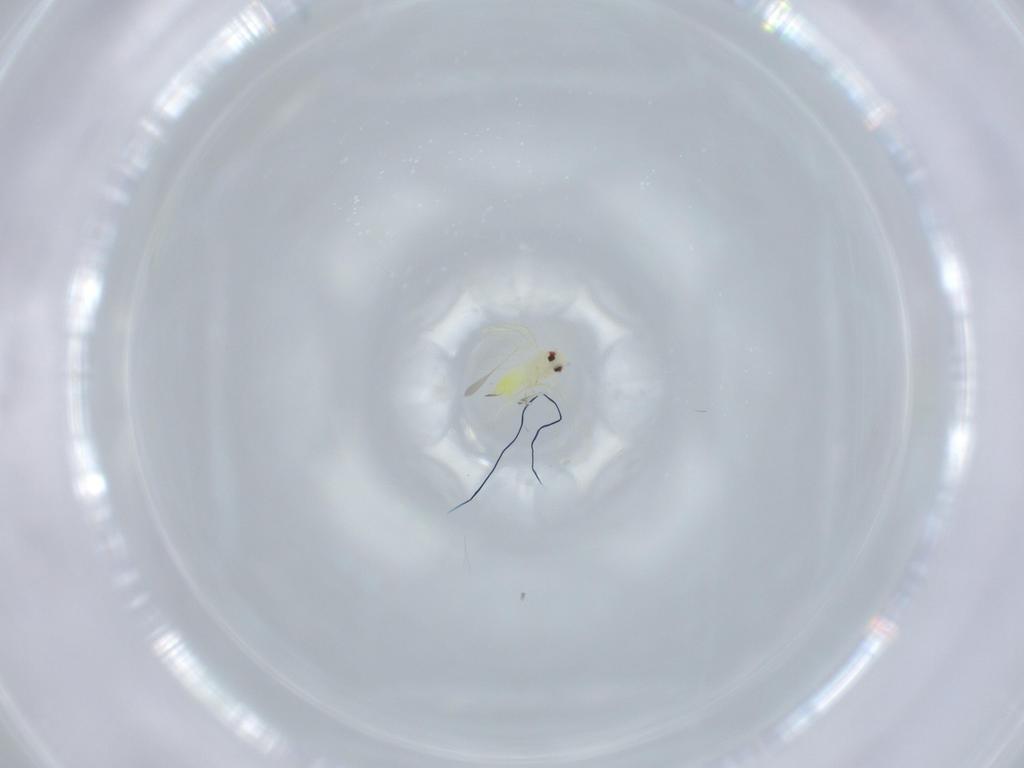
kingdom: Animalia
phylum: Arthropoda
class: Insecta
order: Hemiptera
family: Aleyrodidae
